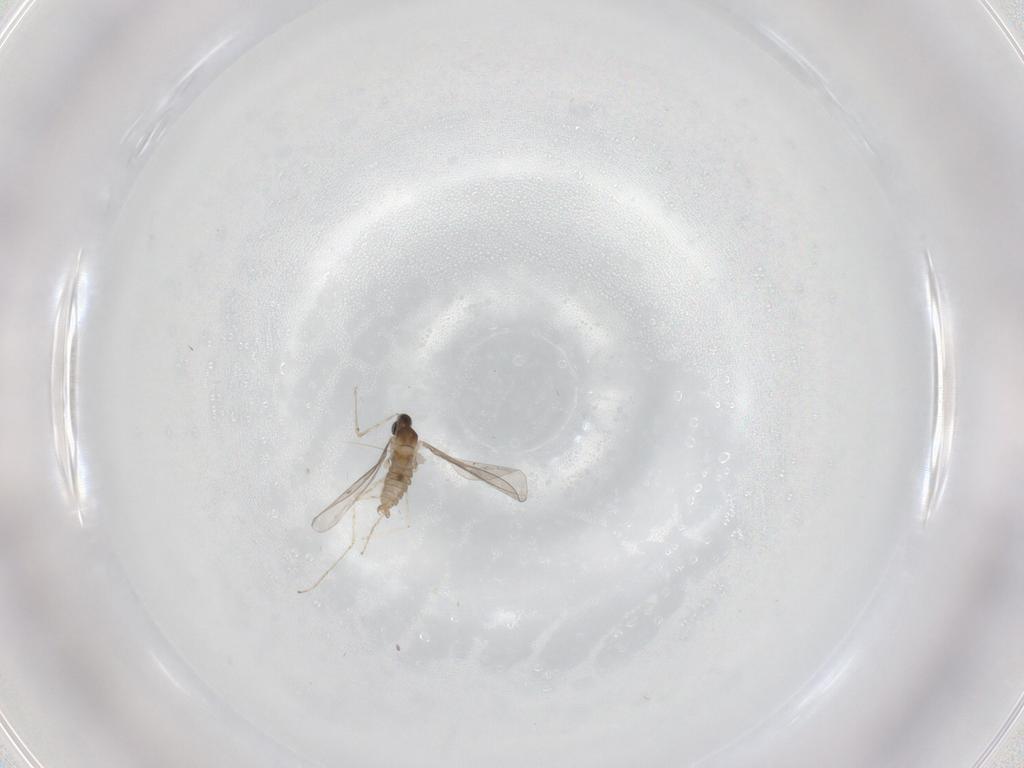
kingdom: Animalia
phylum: Arthropoda
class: Insecta
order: Diptera
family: Cecidomyiidae
